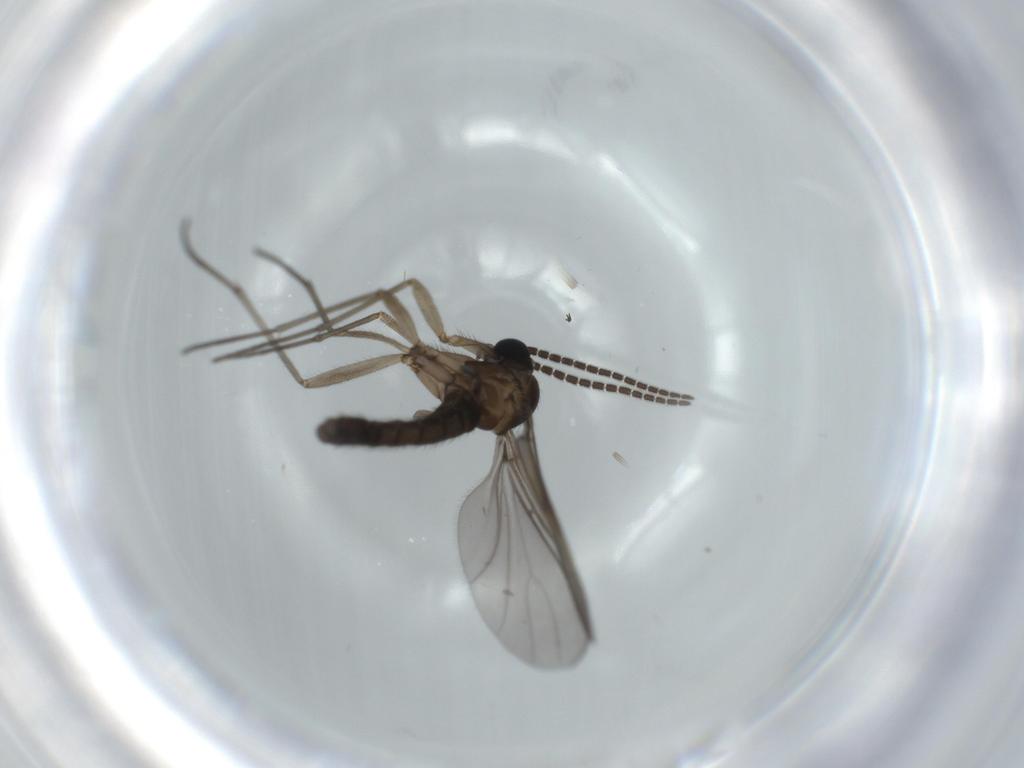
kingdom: Animalia
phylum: Arthropoda
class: Insecta
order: Diptera
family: Sciaridae
